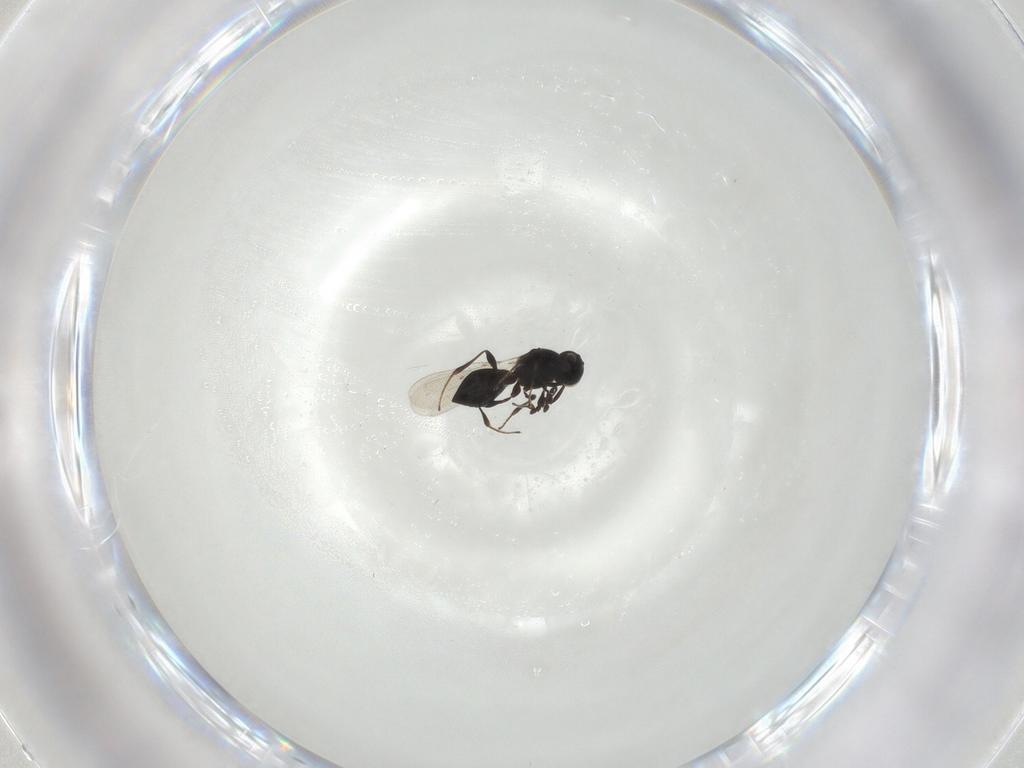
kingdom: Animalia
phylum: Arthropoda
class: Insecta
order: Hymenoptera
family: Platygastridae
